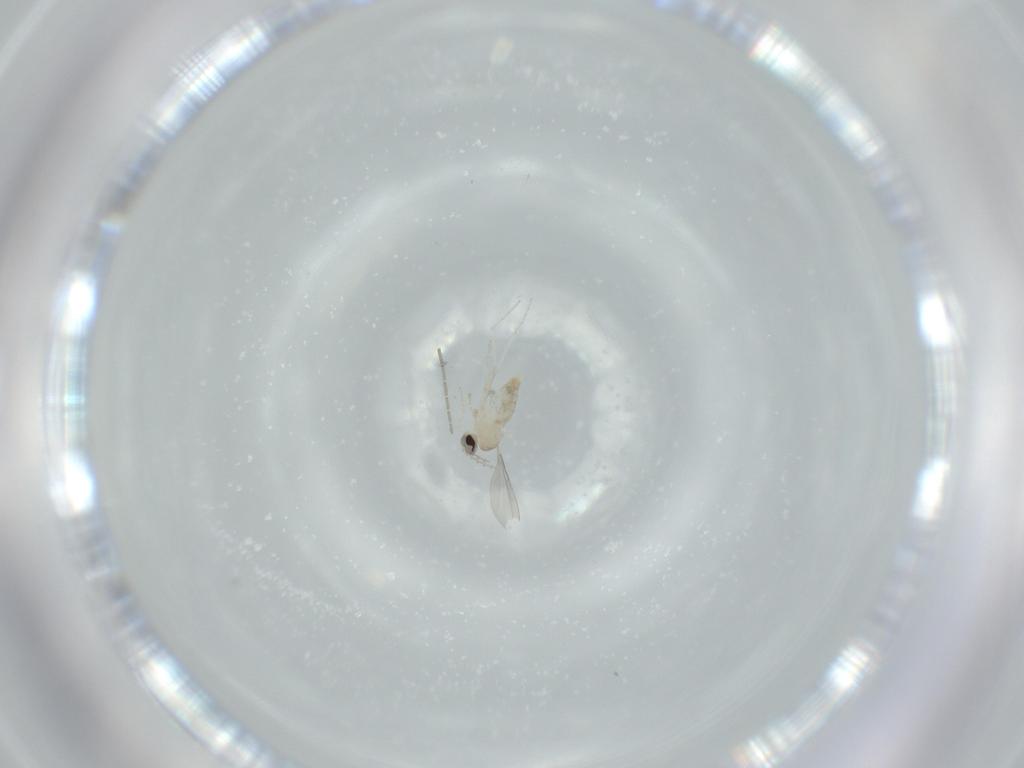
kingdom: Animalia
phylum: Arthropoda
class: Insecta
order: Diptera
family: Cecidomyiidae
